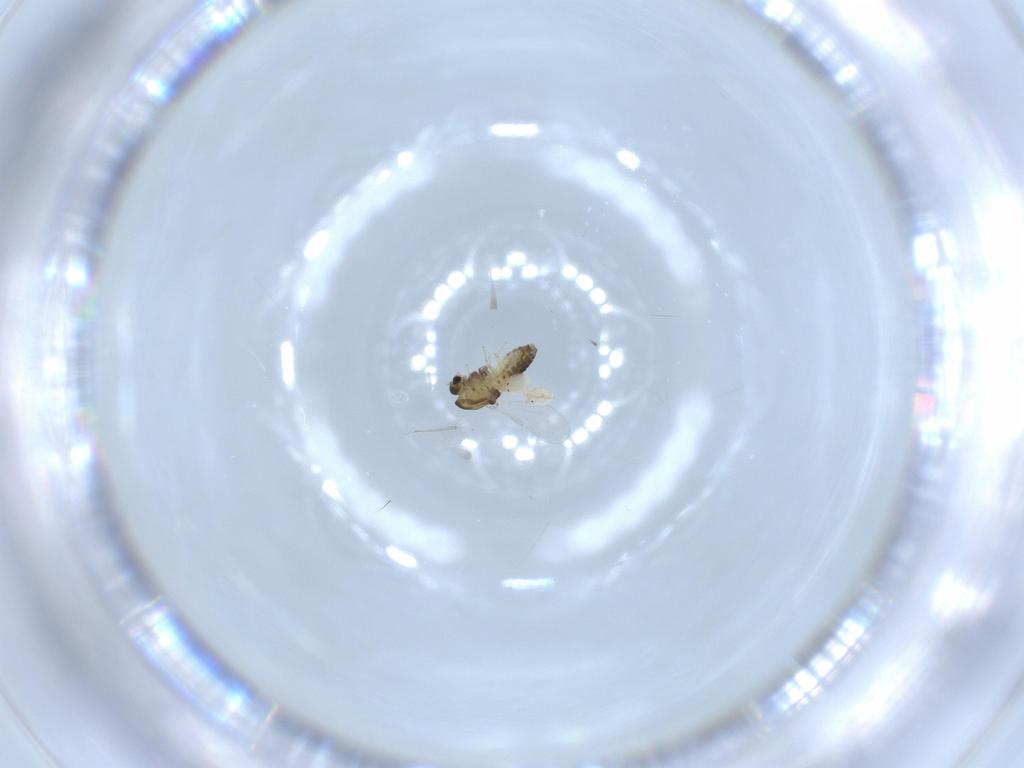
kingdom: Animalia
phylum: Arthropoda
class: Insecta
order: Diptera
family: Chironomidae
